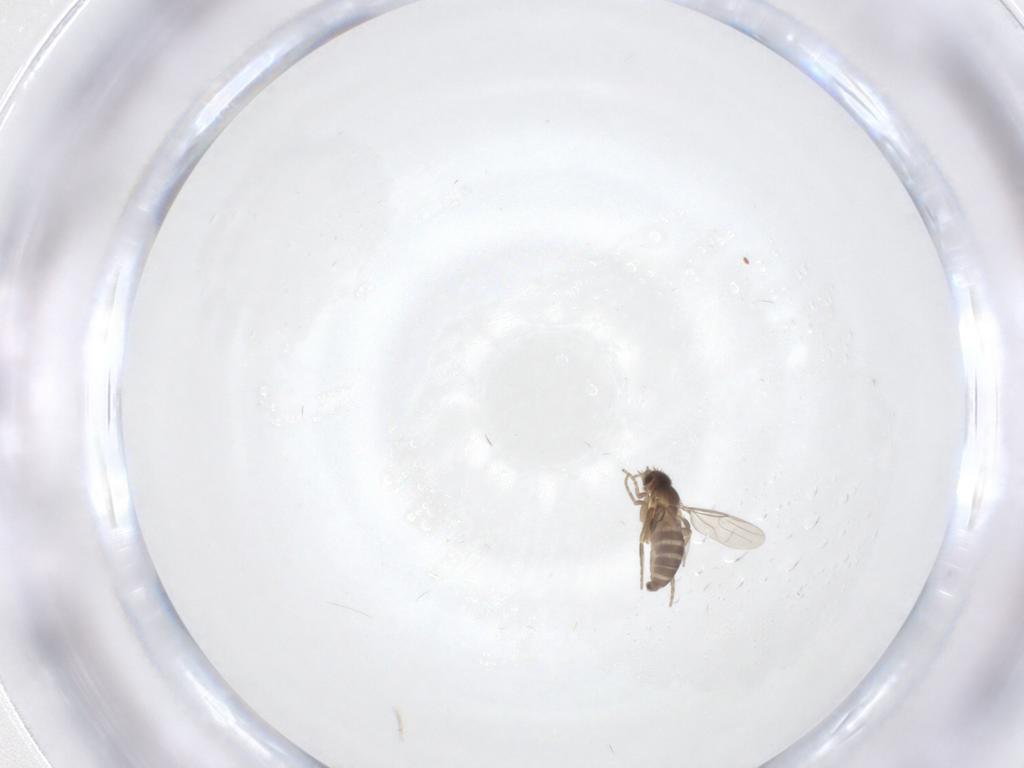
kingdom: Animalia
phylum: Arthropoda
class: Insecta
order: Diptera
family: Phoridae
